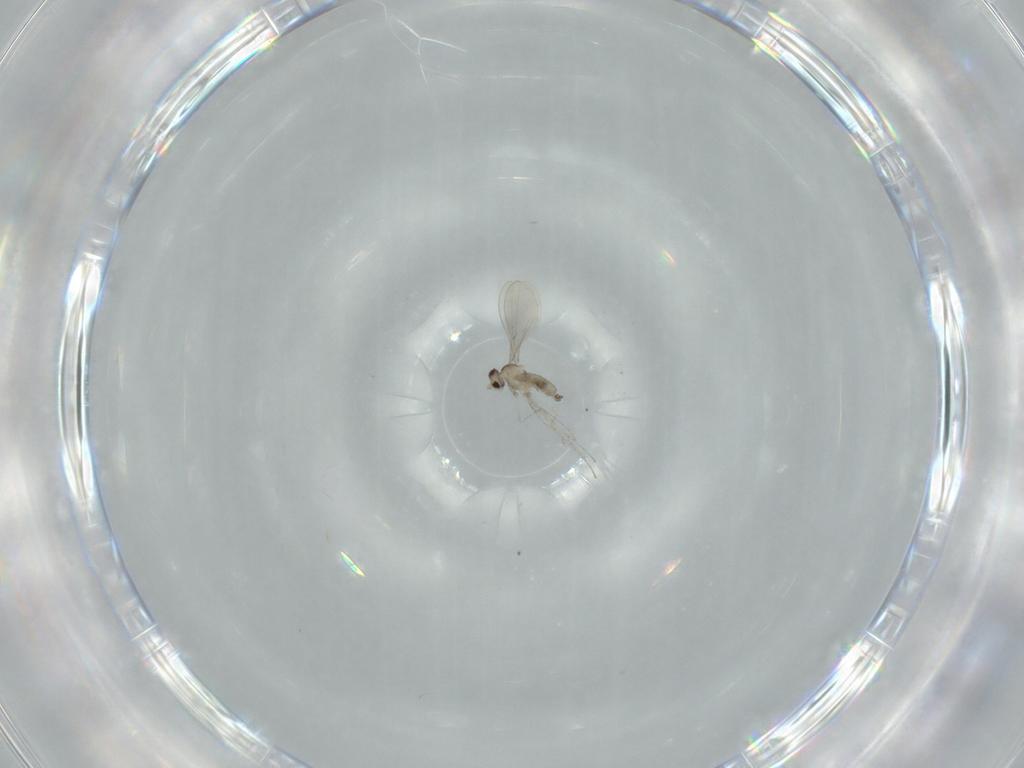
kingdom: Animalia
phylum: Arthropoda
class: Insecta
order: Diptera
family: Cecidomyiidae
